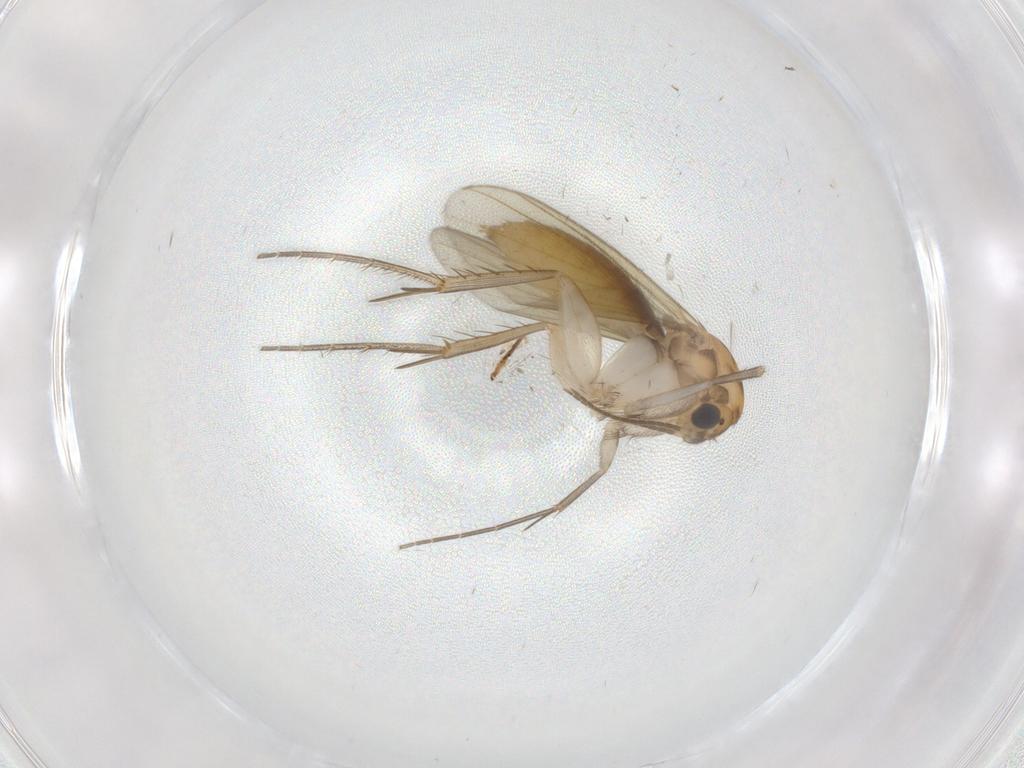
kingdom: Animalia
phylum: Arthropoda
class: Insecta
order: Diptera
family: Mycetophilidae
